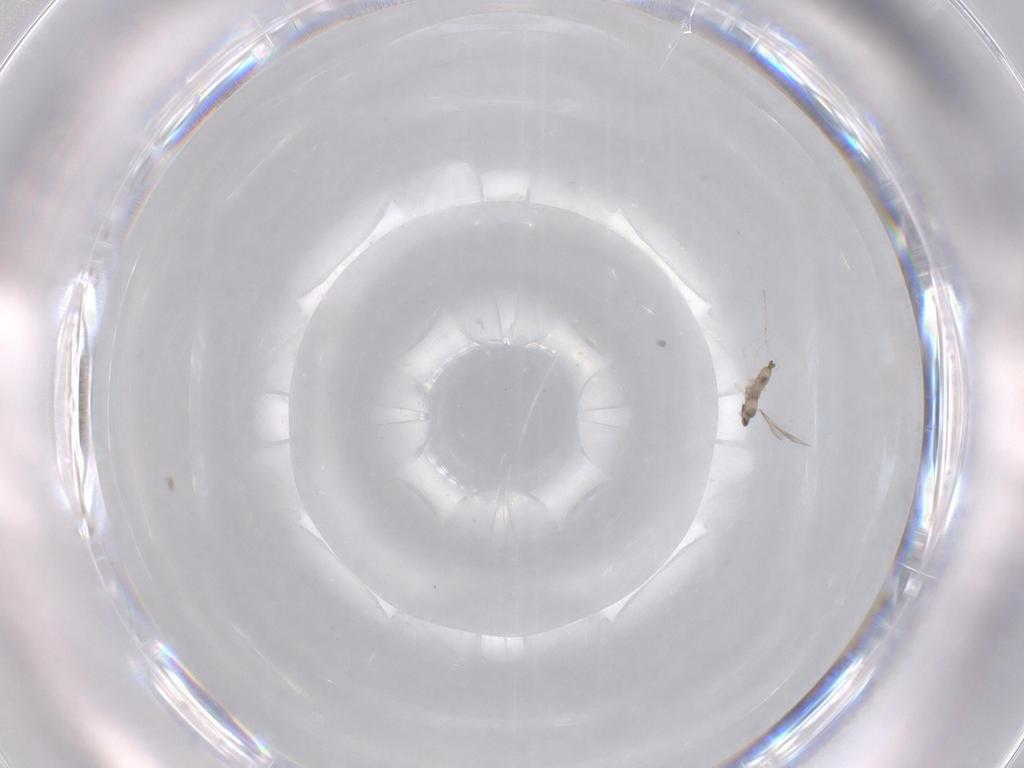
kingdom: Animalia
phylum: Arthropoda
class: Insecta
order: Diptera
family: Cecidomyiidae
